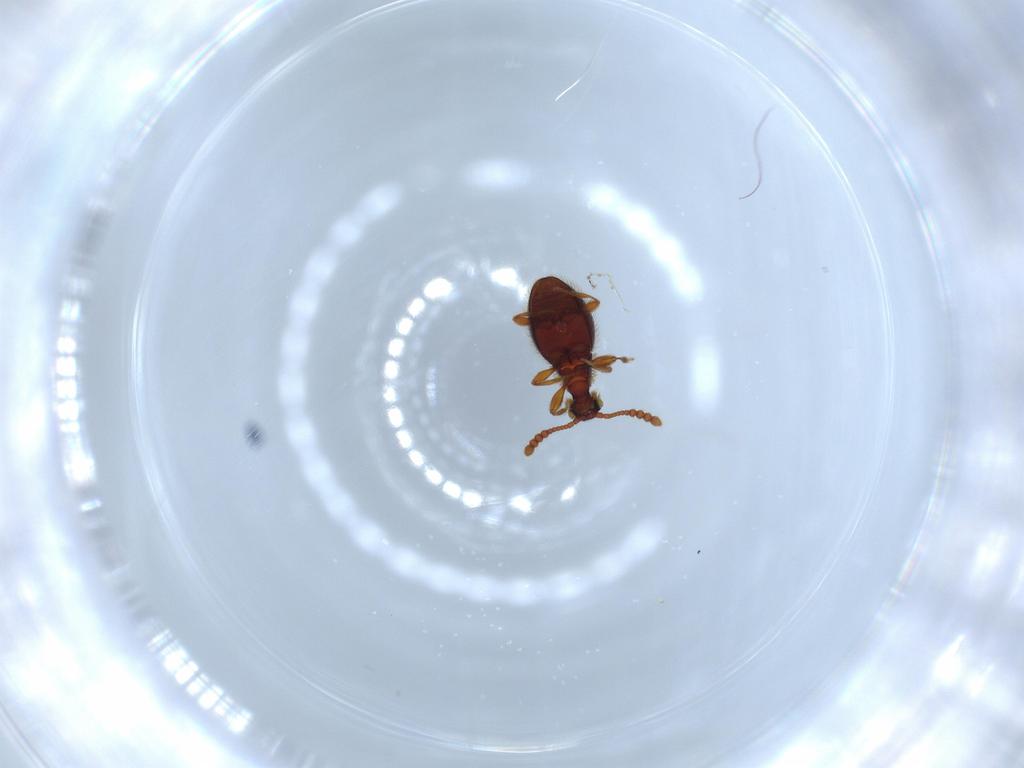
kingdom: Animalia
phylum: Arthropoda
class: Insecta
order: Coleoptera
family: Staphylinidae
